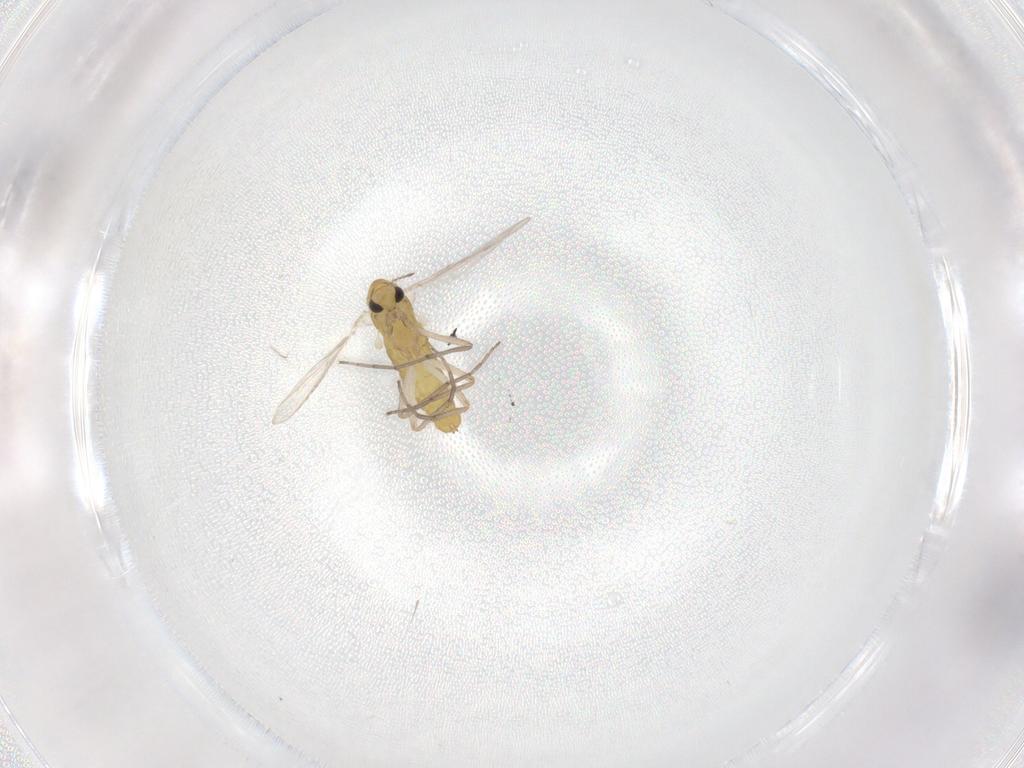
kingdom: Animalia
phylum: Arthropoda
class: Insecta
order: Diptera
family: Chironomidae
